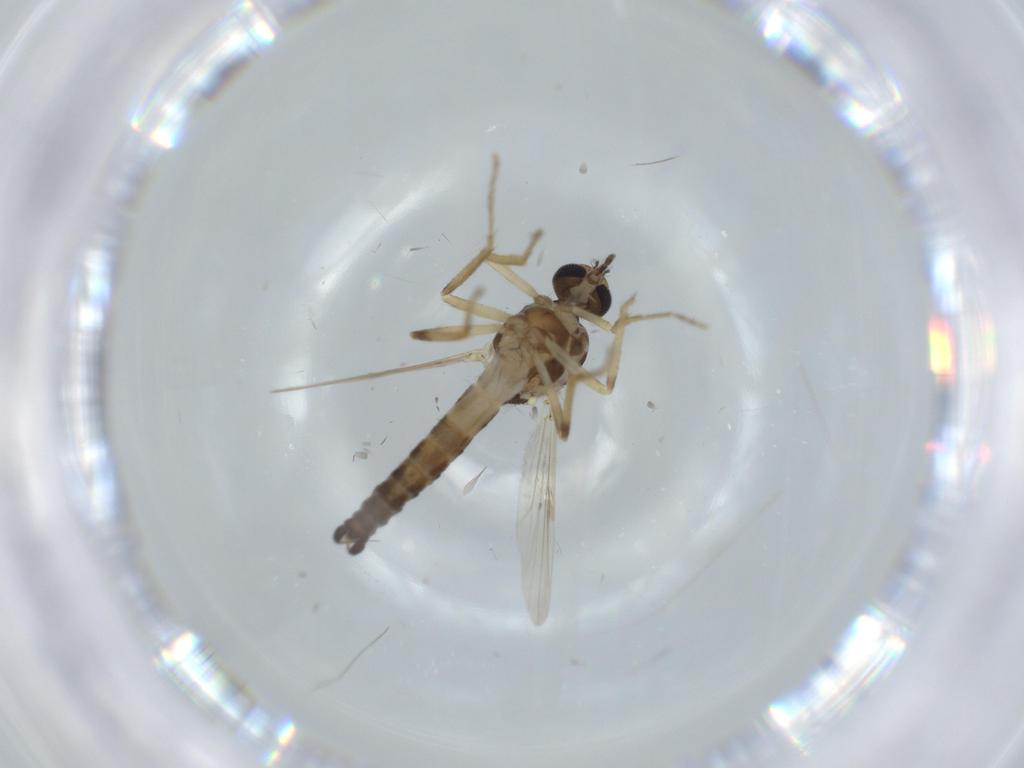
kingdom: Animalia
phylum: Arthropoda
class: Insecta
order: Diptera
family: Ceratopogonidae
